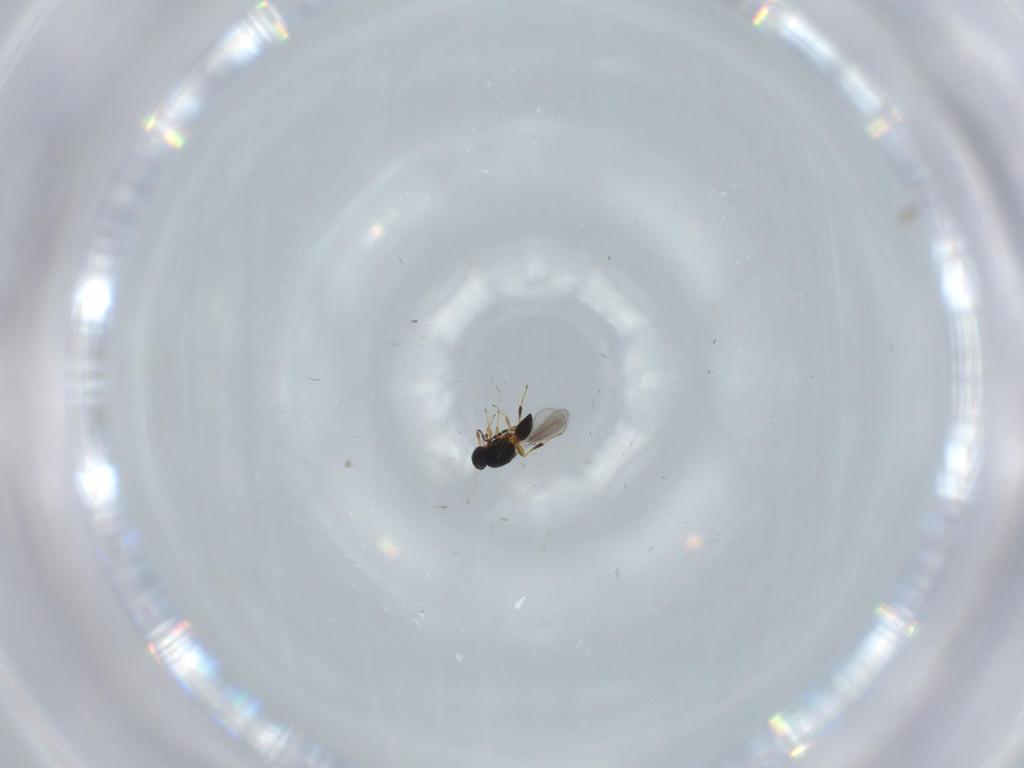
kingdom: Animalia
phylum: Arthropoda
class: Insecta
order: Hymenoptera
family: Platygastridae
